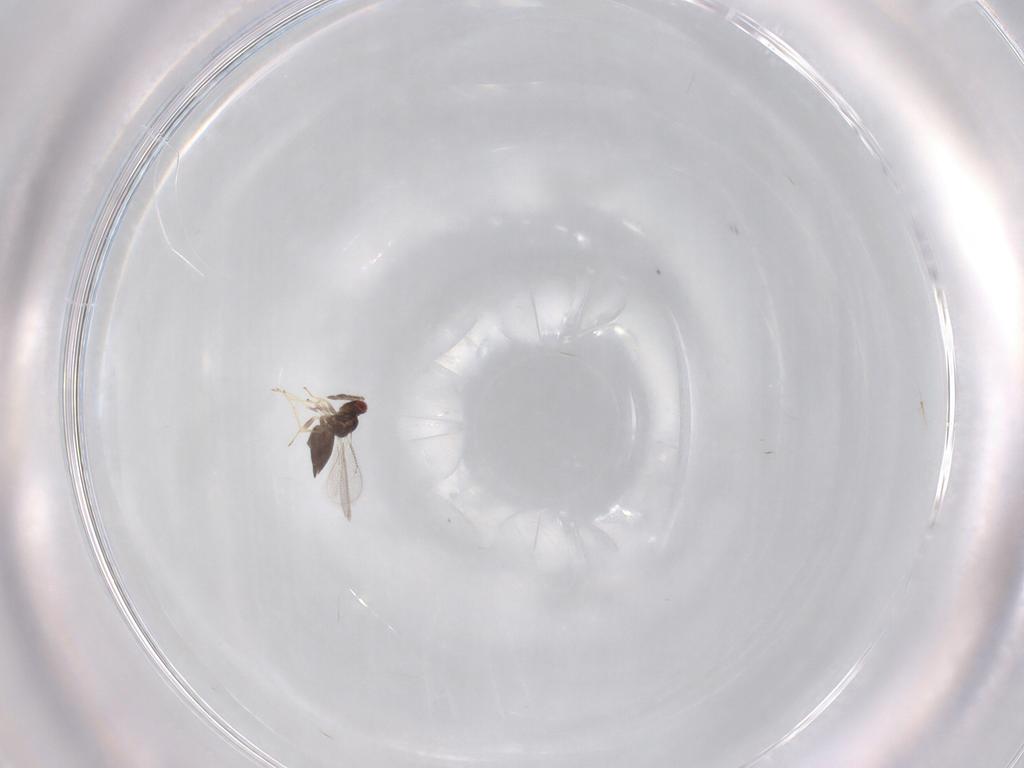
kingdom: Animalia
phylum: Arthropoda
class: Insecta
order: Hymenoptera
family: Eulophidae
